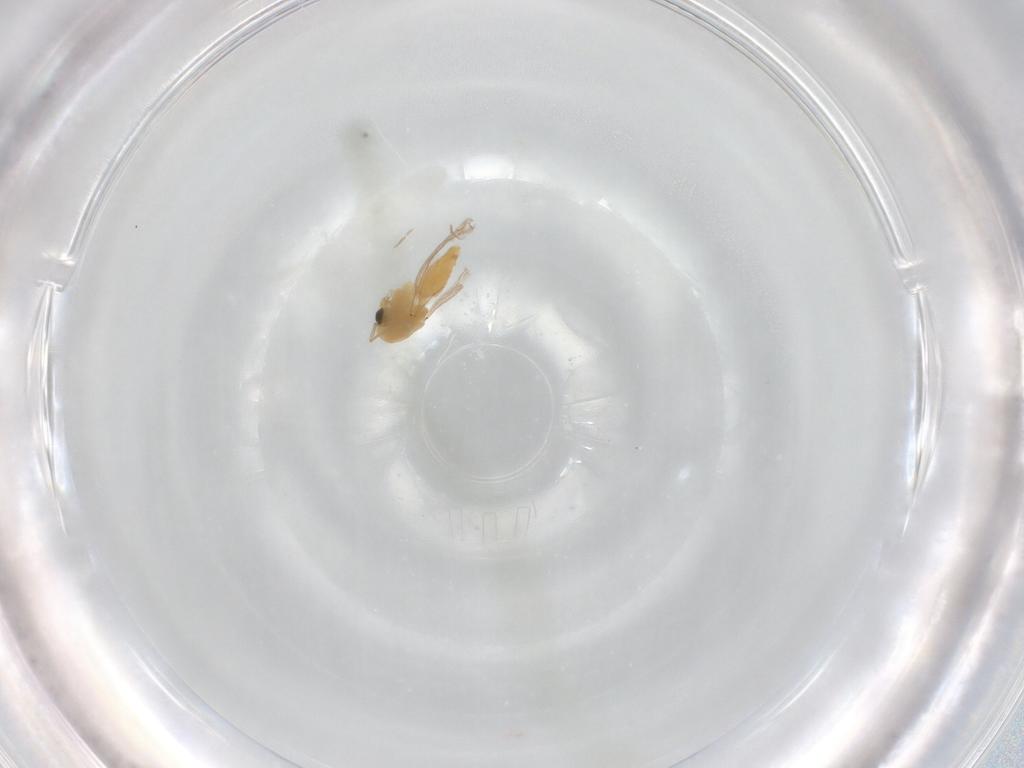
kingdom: Animalia
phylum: Arthropoda
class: Insecta
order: Diptera
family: Chironomidae
